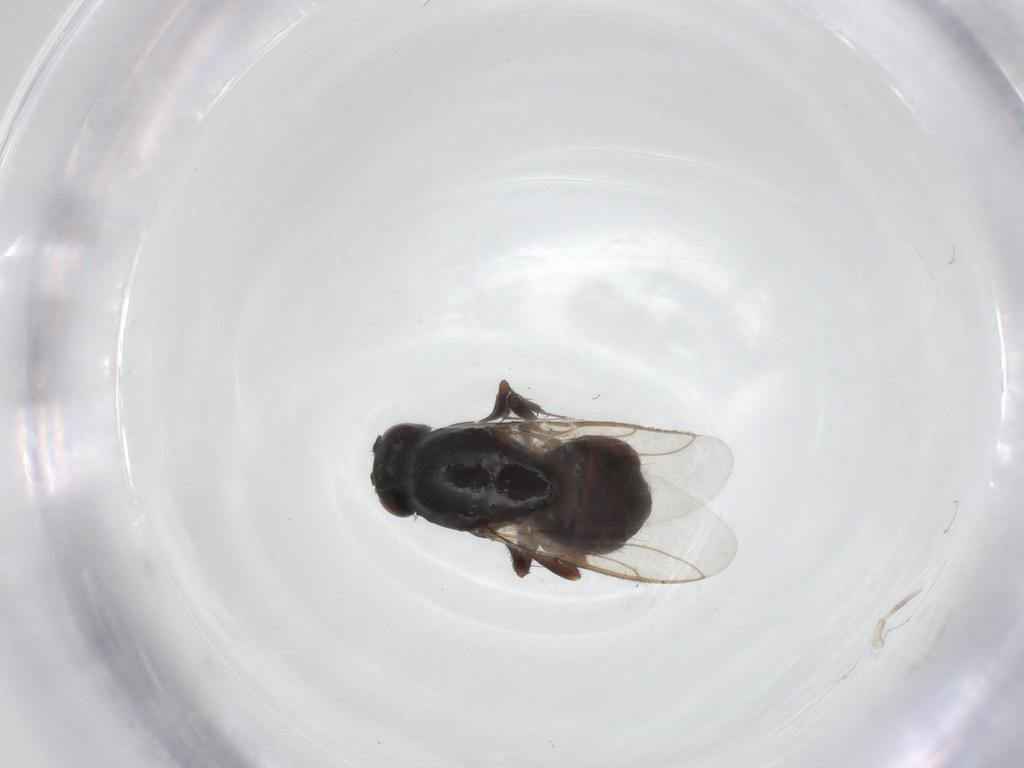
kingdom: Animalia
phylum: Arthropoda
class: Insecta
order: Diptera
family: Sphaeroceridae
